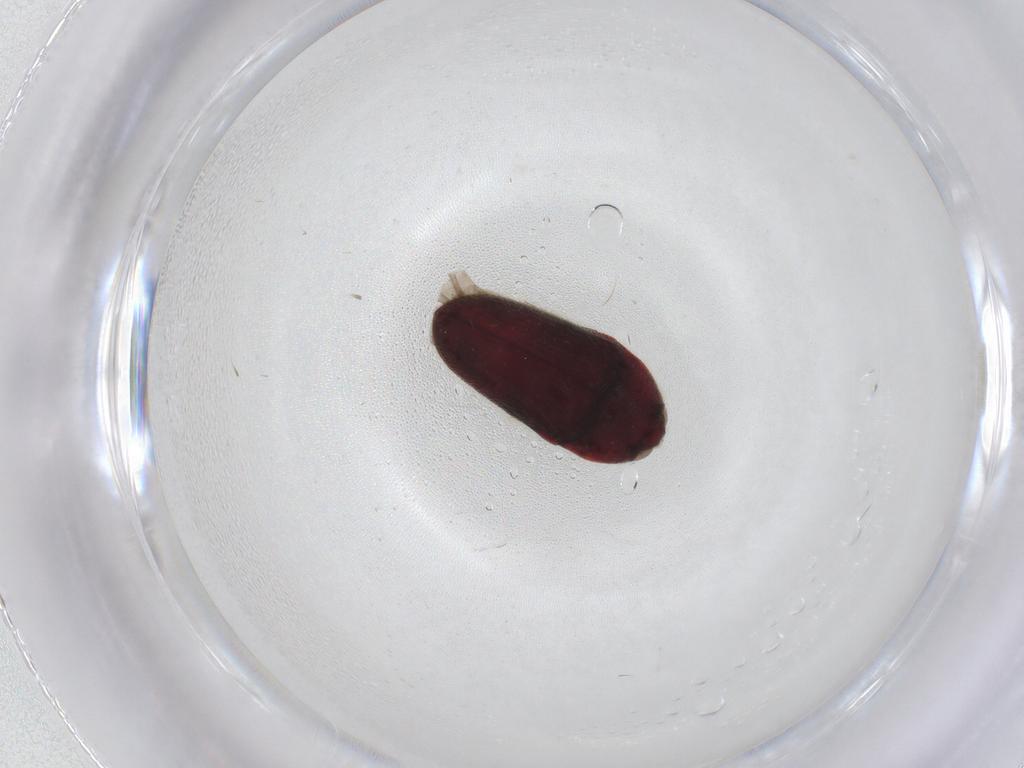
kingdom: Animalia
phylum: Arthropoda
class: Insecta
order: Coleoptera
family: Throscidae
